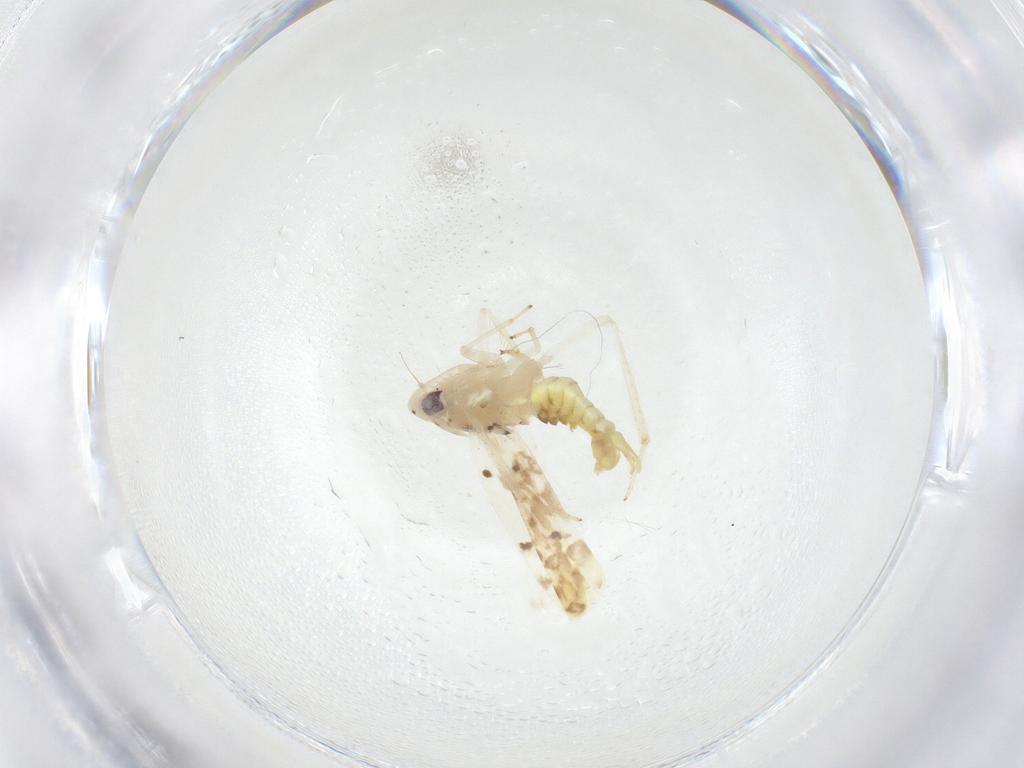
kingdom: Animalia
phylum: Arthropoda
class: Insecta
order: Hemiptera
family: Cicadellidae
